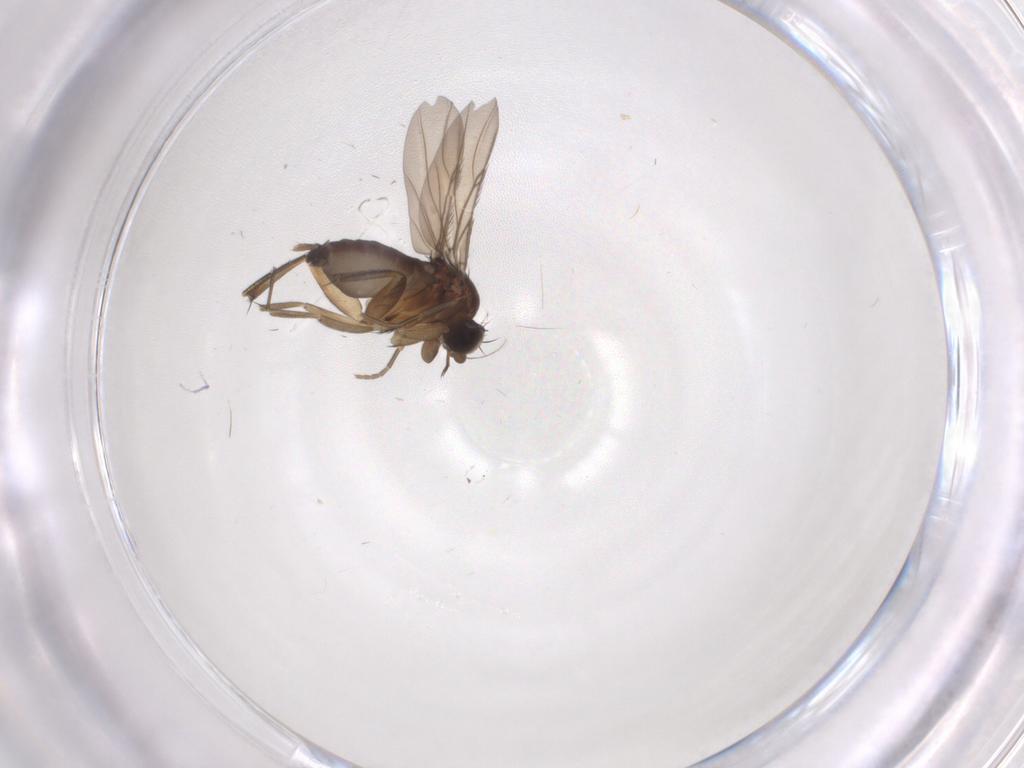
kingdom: Animalia
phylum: Arthropoda
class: Insecta
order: Diptera
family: Phoridae
